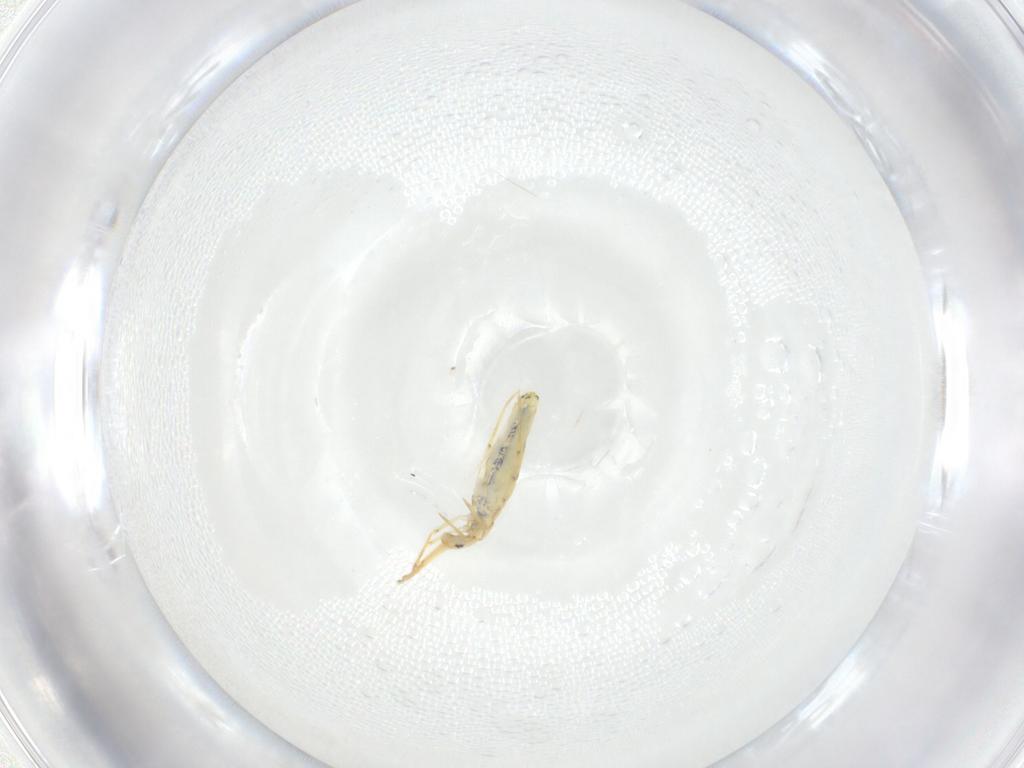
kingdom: Animalia
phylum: Arthropoda
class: Collembola
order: Entomobryomorpha
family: Entomobryidae
